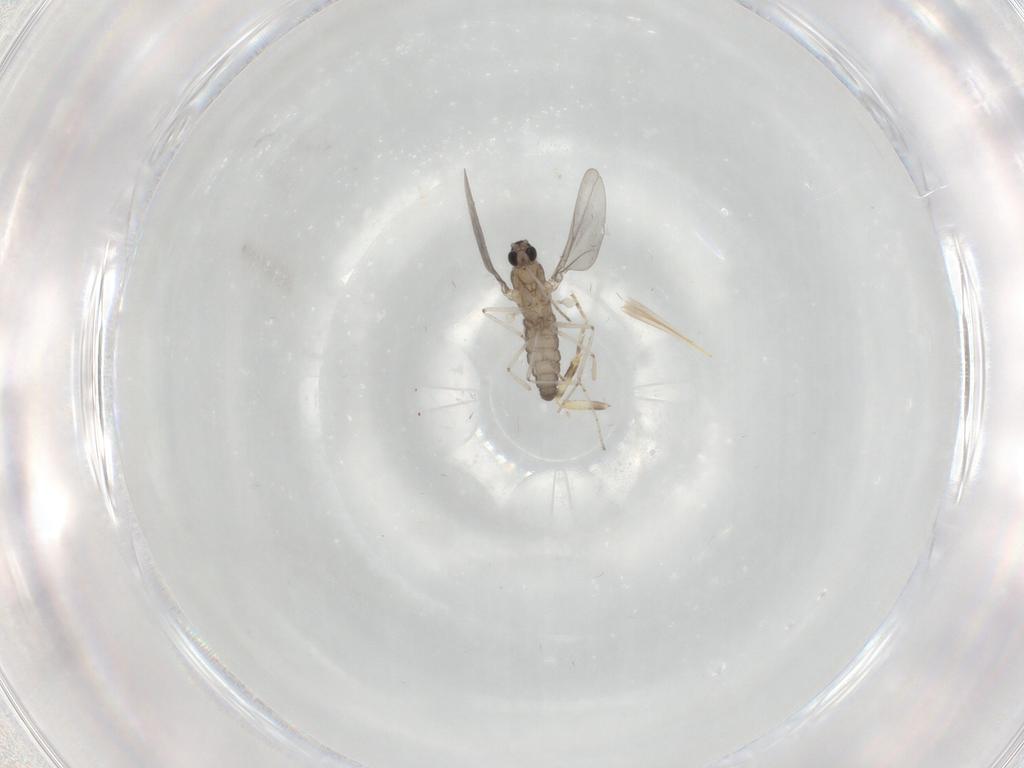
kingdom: Animalia
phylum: Arthropoda
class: Insecta
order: Diptera
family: Ceratopogonidae
